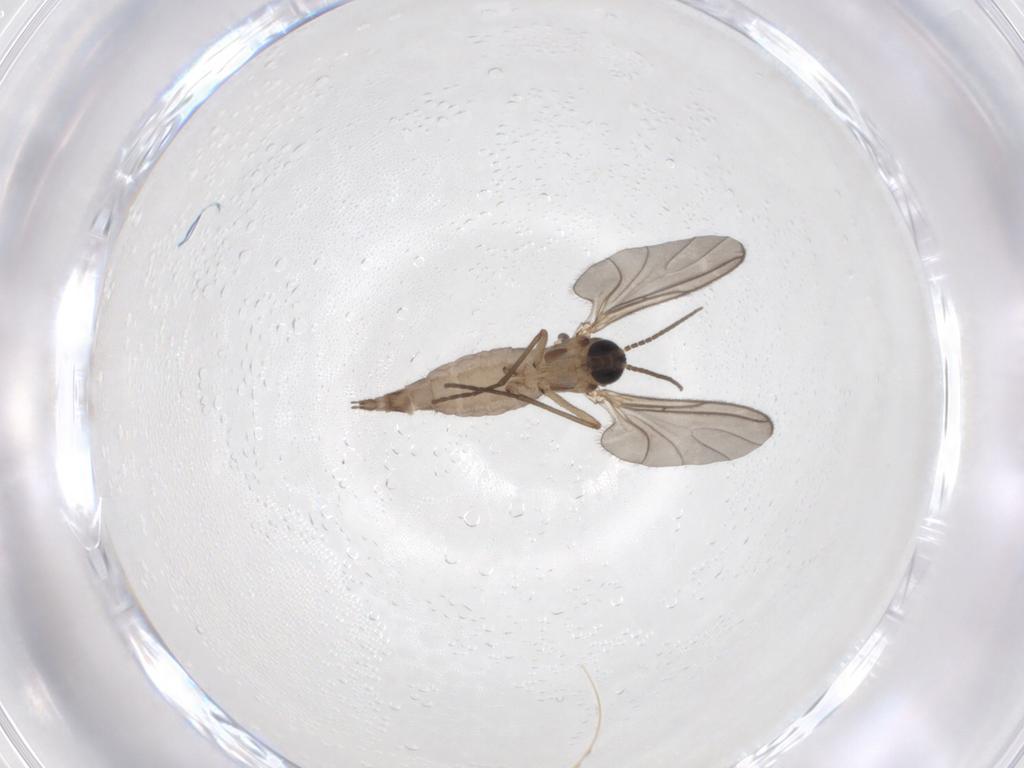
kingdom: Animalia
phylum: Arthropoda
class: Insecta
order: Diptera
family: Sciaridae
